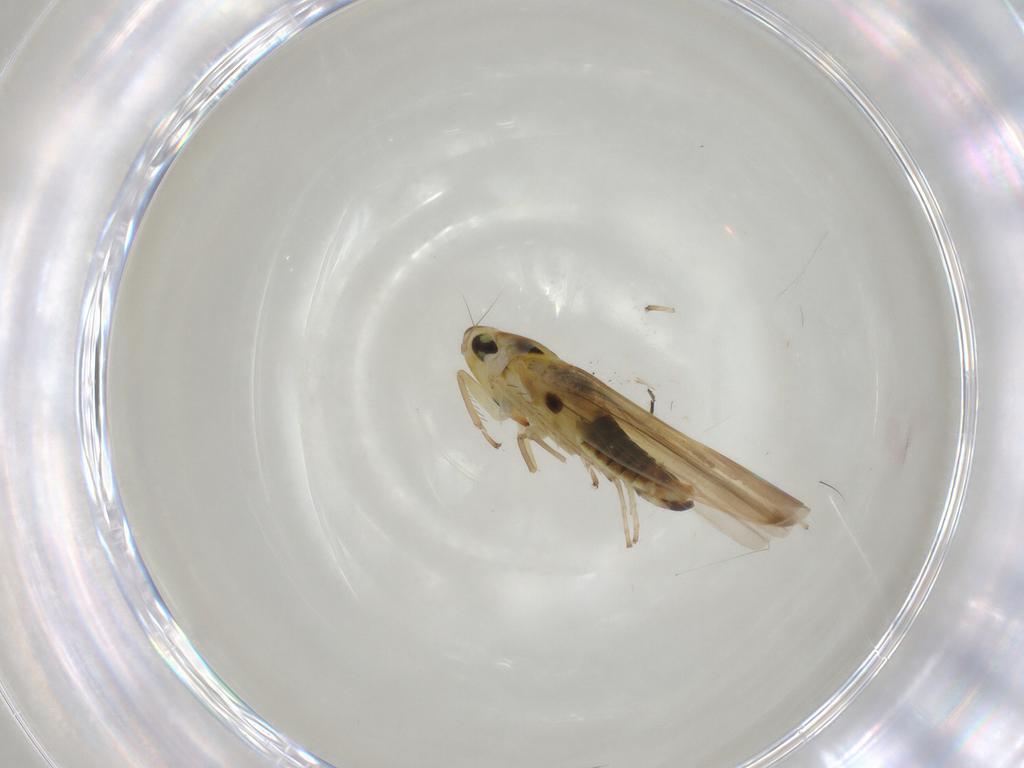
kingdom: Animalia
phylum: Arthropoda
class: Insecta
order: Hemiptera
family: Cicadellidae
